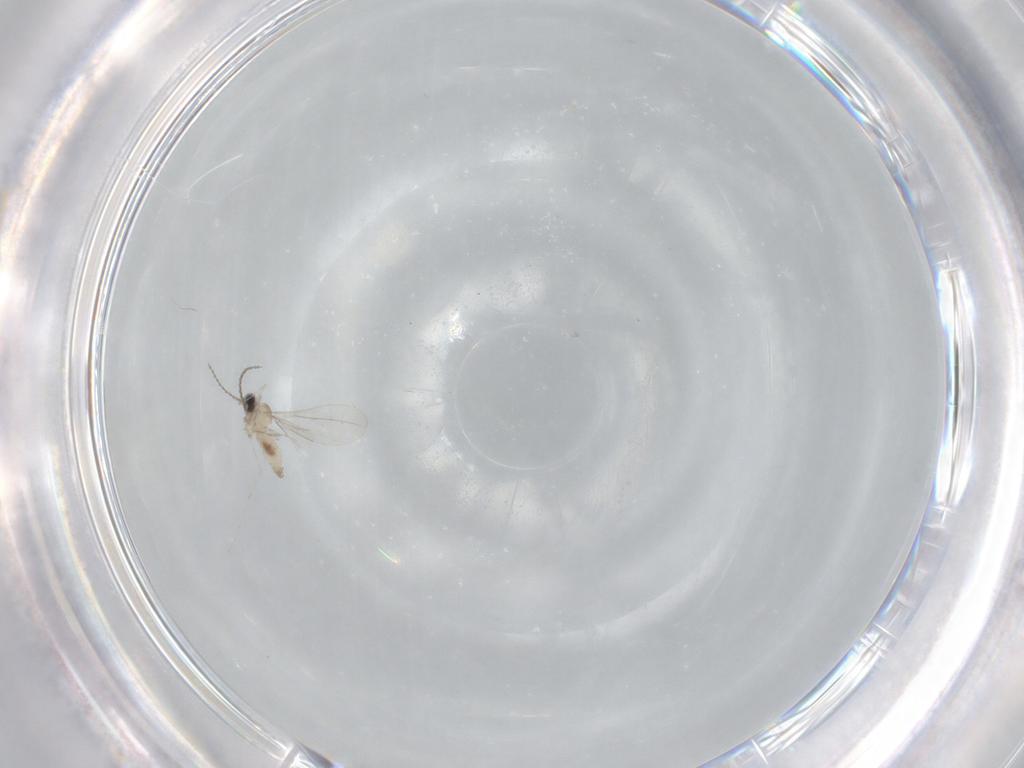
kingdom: Animalia
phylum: Arthropoda
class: Insecta
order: Diptera
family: Cecidomyiidae
